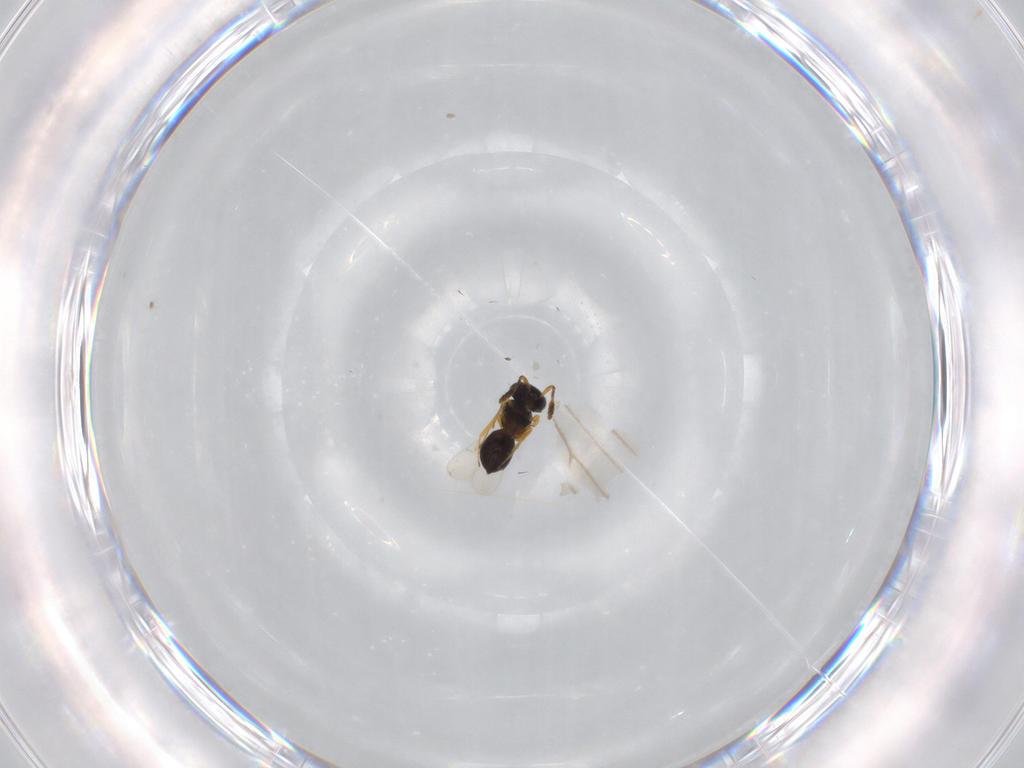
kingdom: Animalia
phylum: Arthropoda
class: Insecta
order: Hymenoptera
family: Scelionidae
